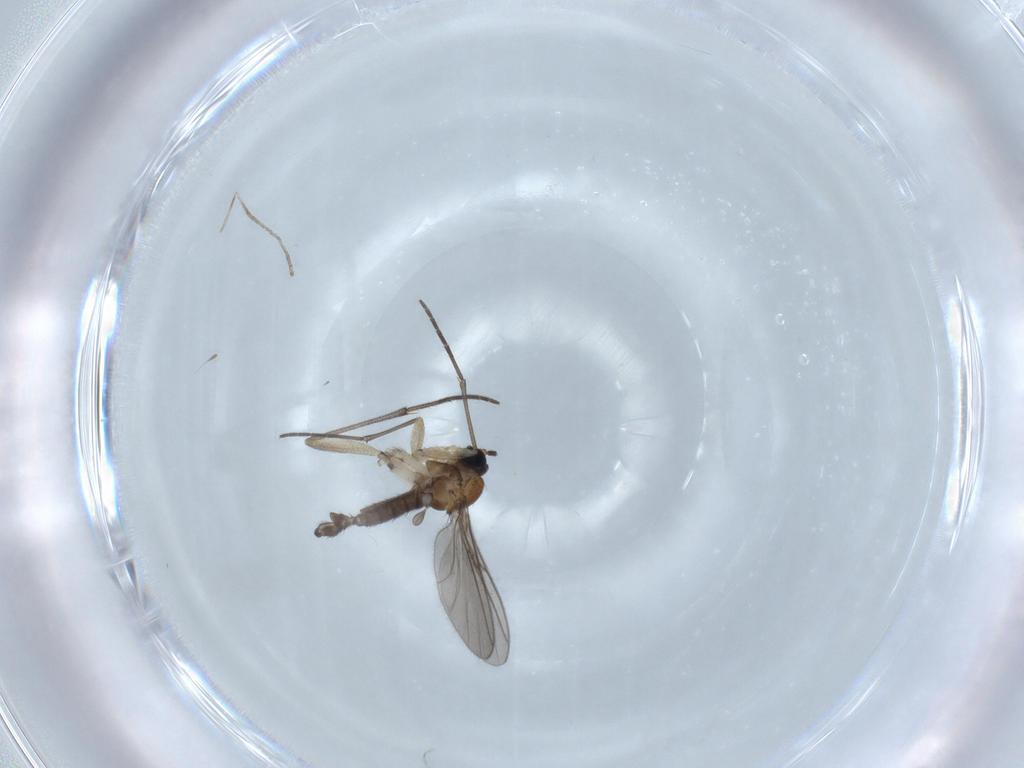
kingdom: Animalia
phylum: Arthropoda
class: Insecta
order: Diptera
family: Sciaridae
